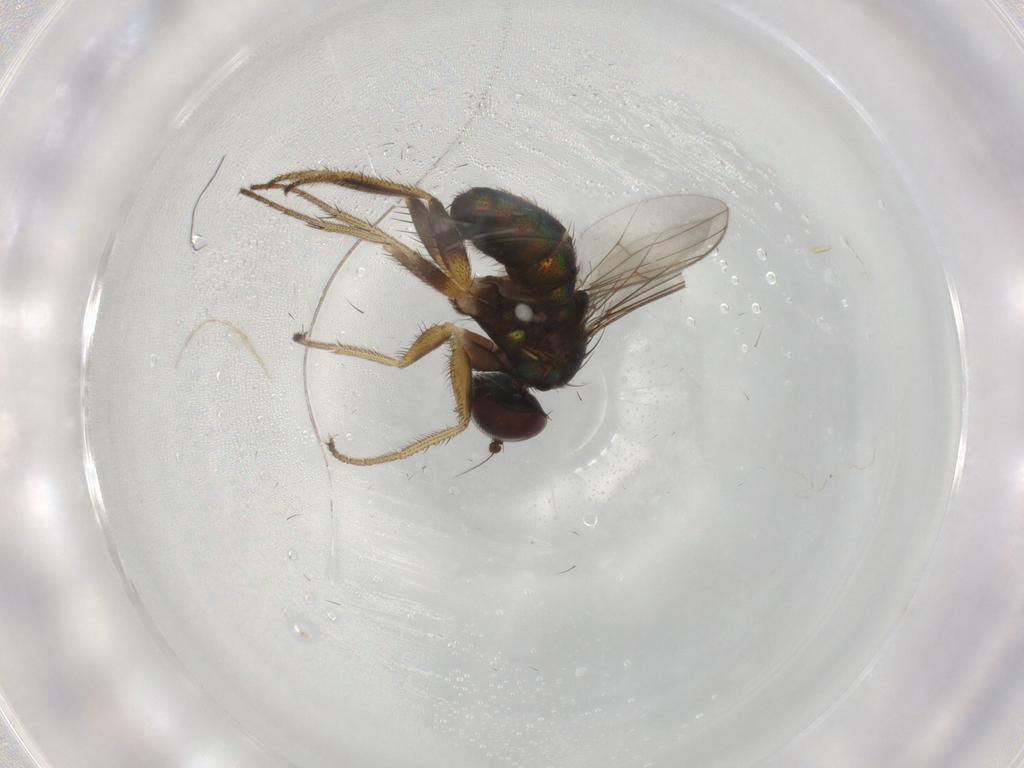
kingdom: Animalia
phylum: Arthropoda
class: Insecta
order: Diptera
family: Dolichopodidae
